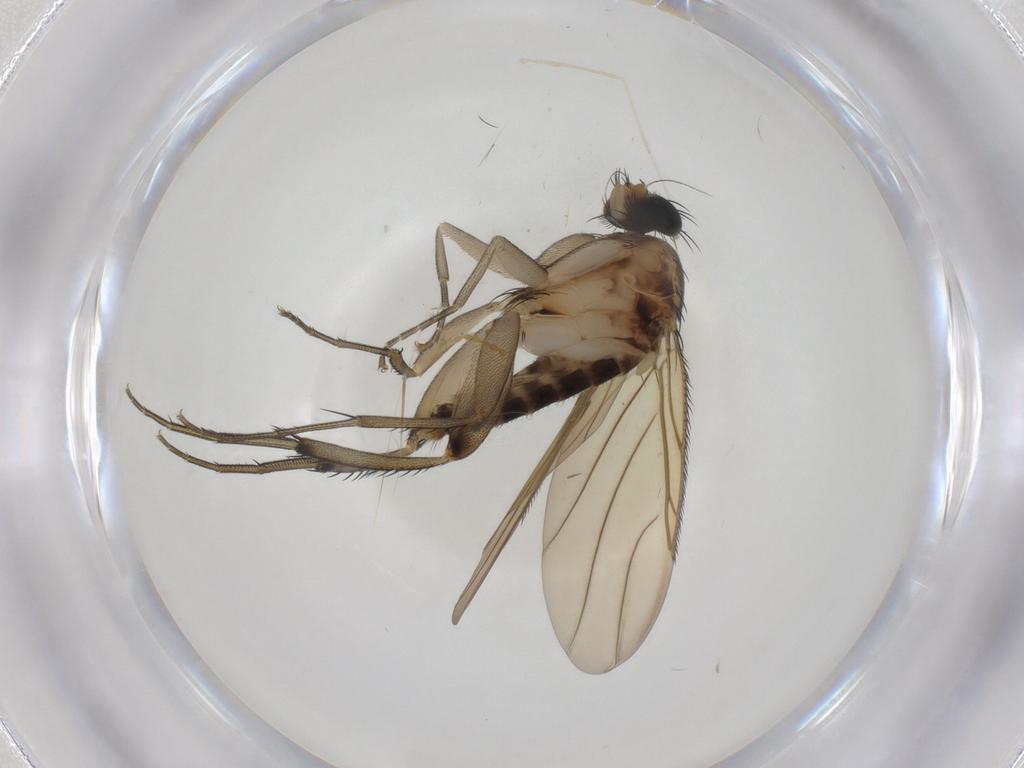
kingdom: Animalia
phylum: Arthropoda
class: Insecta
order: Diptera
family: Phoridae
